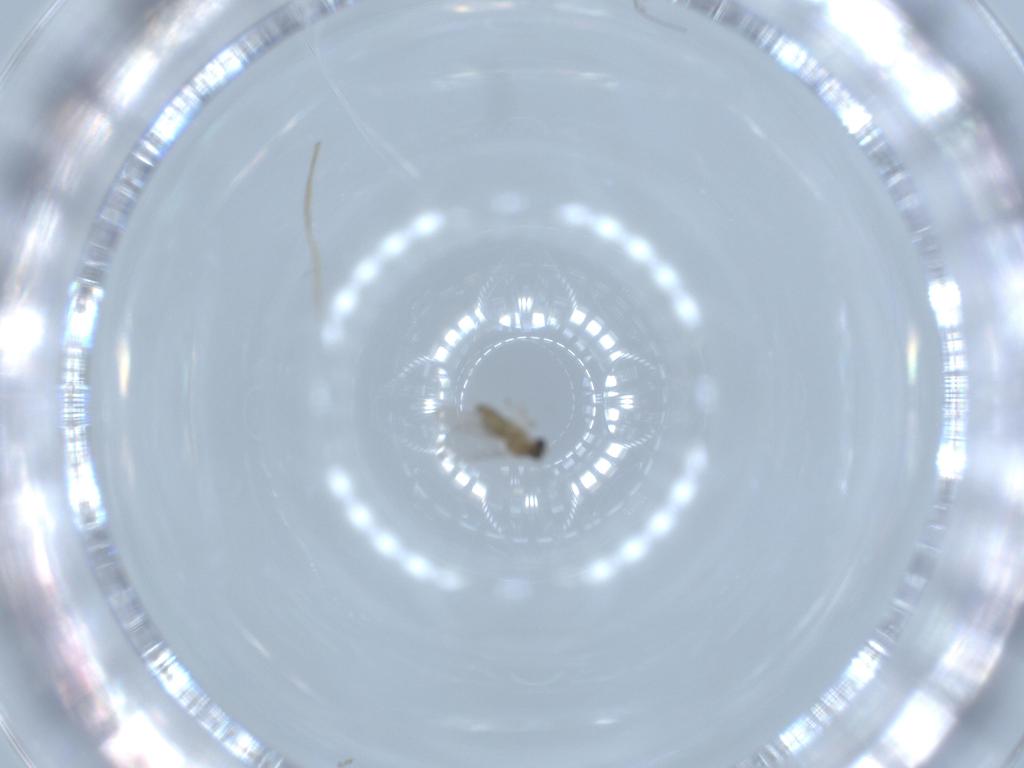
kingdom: Animalia
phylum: Arthropoda
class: Insecta
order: Diptera
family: Cecidomyiidae
